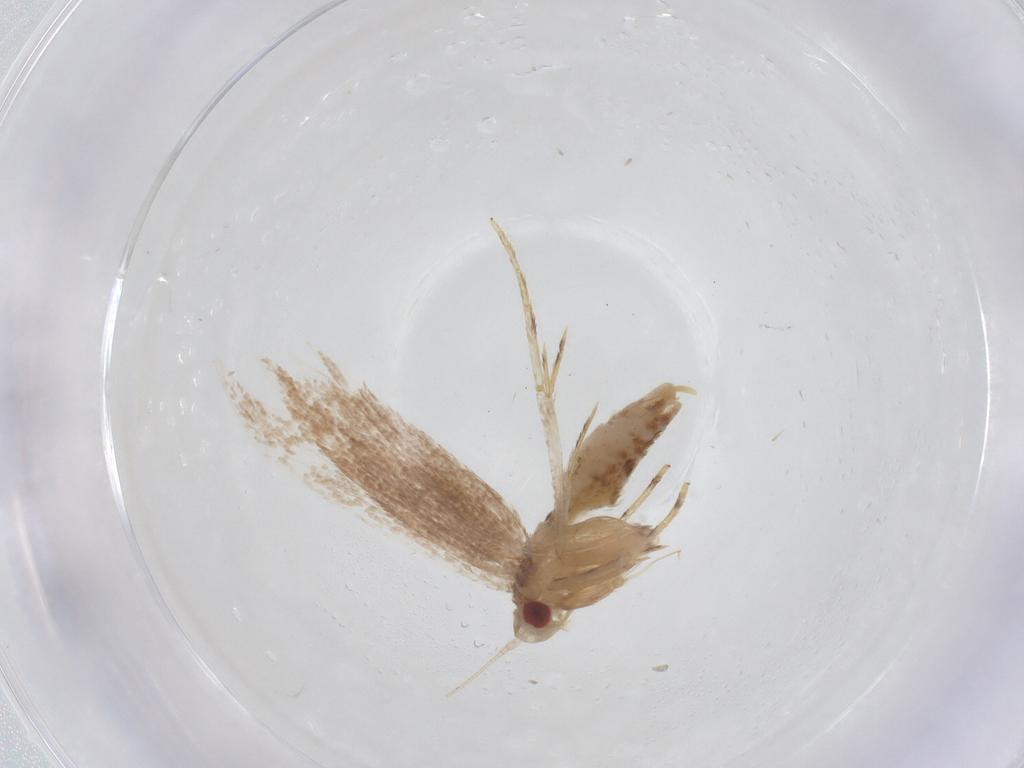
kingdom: Animalia
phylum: Arthropoda
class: Insecta
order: Lepidoptera
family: Cosmopterigidae
